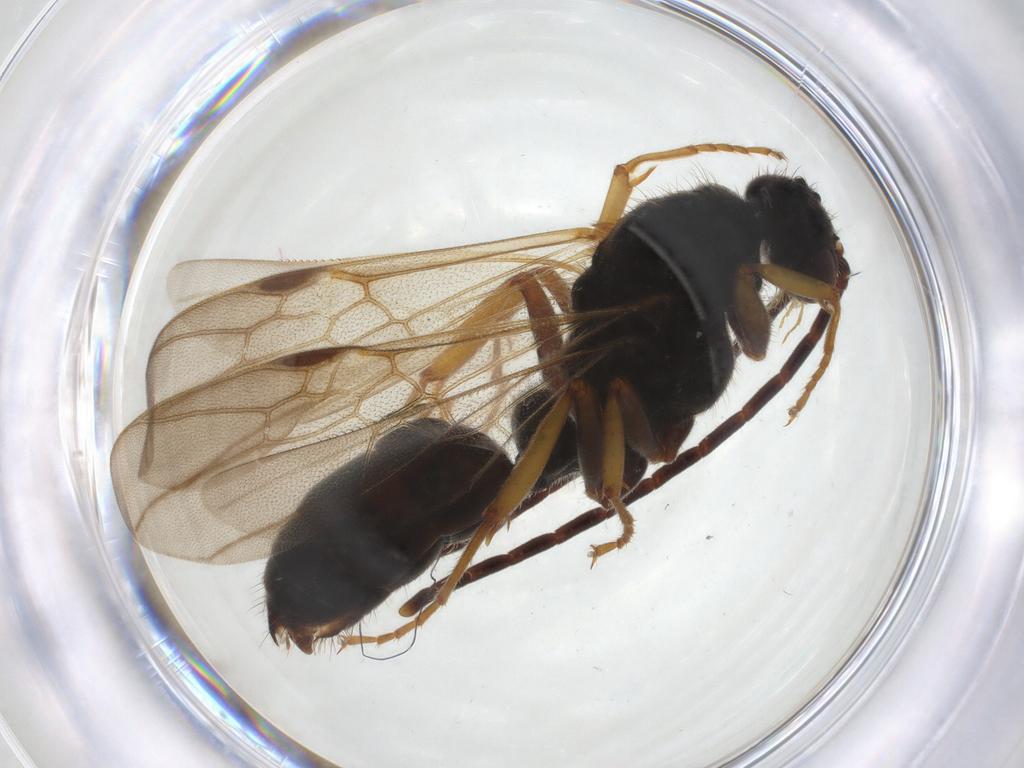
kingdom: Animalia
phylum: Arthropoda
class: Insecta
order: Hymenoptera
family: Formicidae
